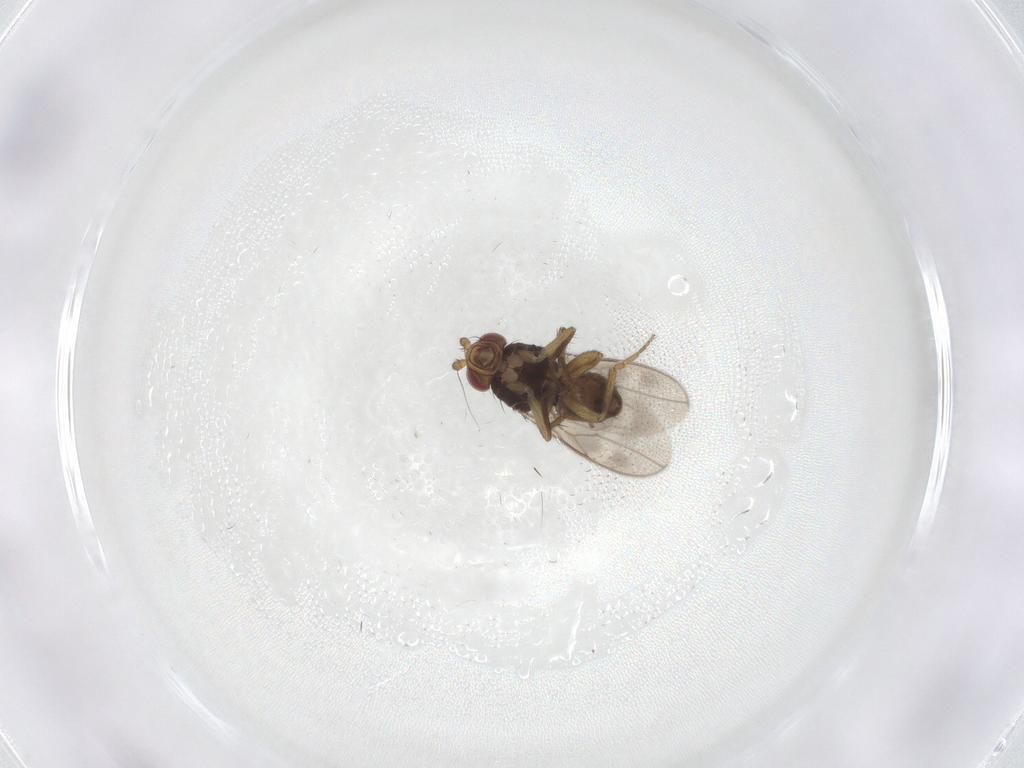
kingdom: Animalia
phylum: Arthropoda
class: Insecta
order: Diptera
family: Sphaeroceridae
